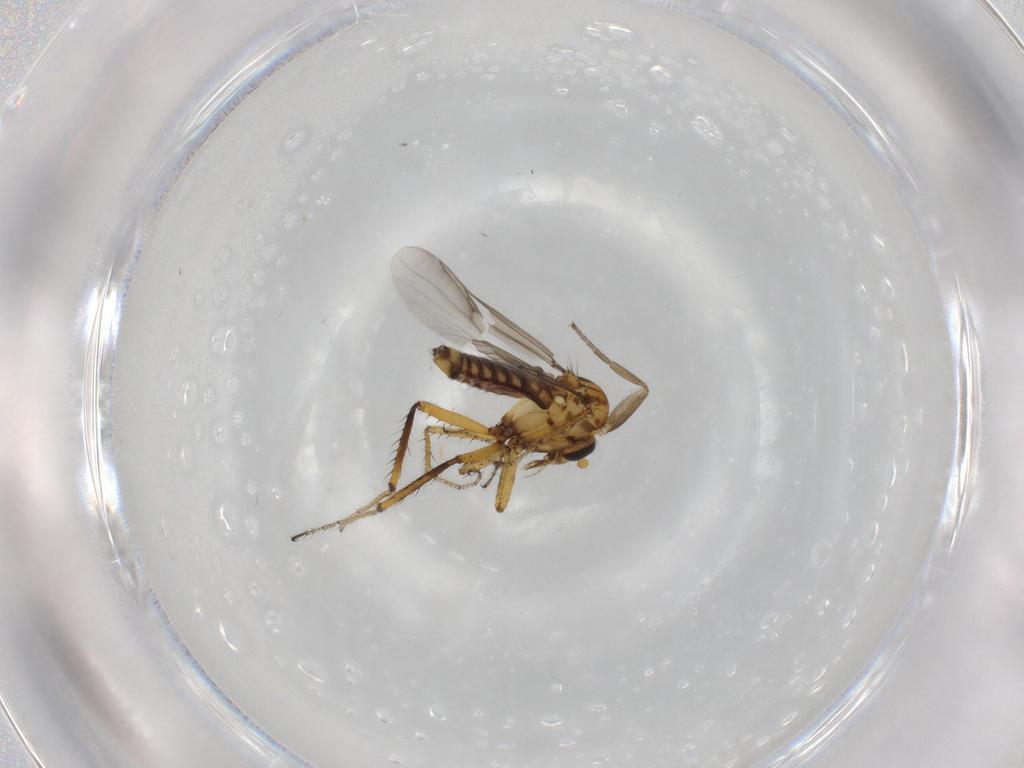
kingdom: Animalia
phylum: Arthropoda
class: Insecta
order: Diptera
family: Ceratopogonidae
